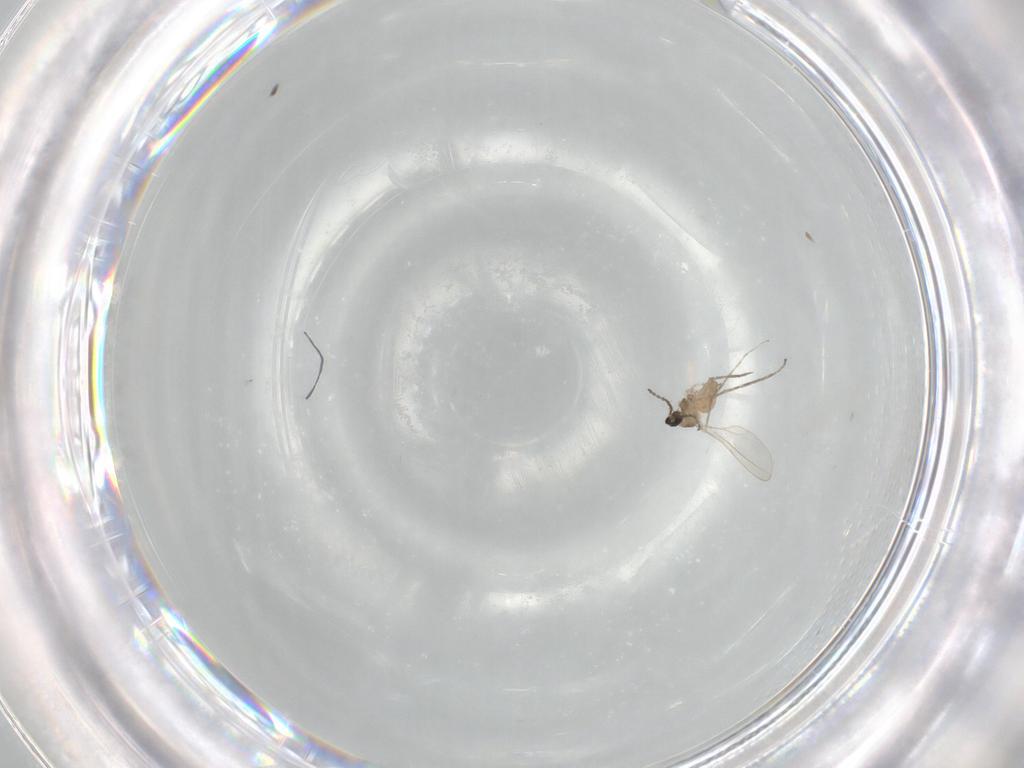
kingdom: Animalia
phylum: Arthropoda
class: Insecta
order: Diptera
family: Cecidomyiidae
